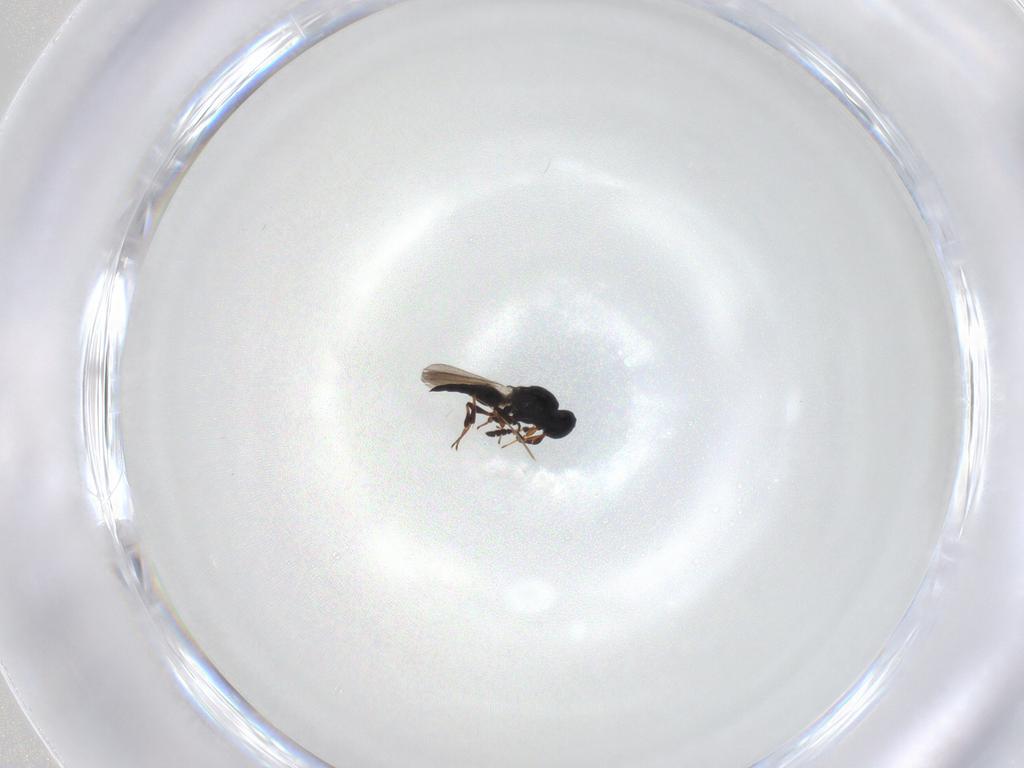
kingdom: Animalia
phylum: Arthropoda
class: Insecta
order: Hymenoptera
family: Platygastridae
